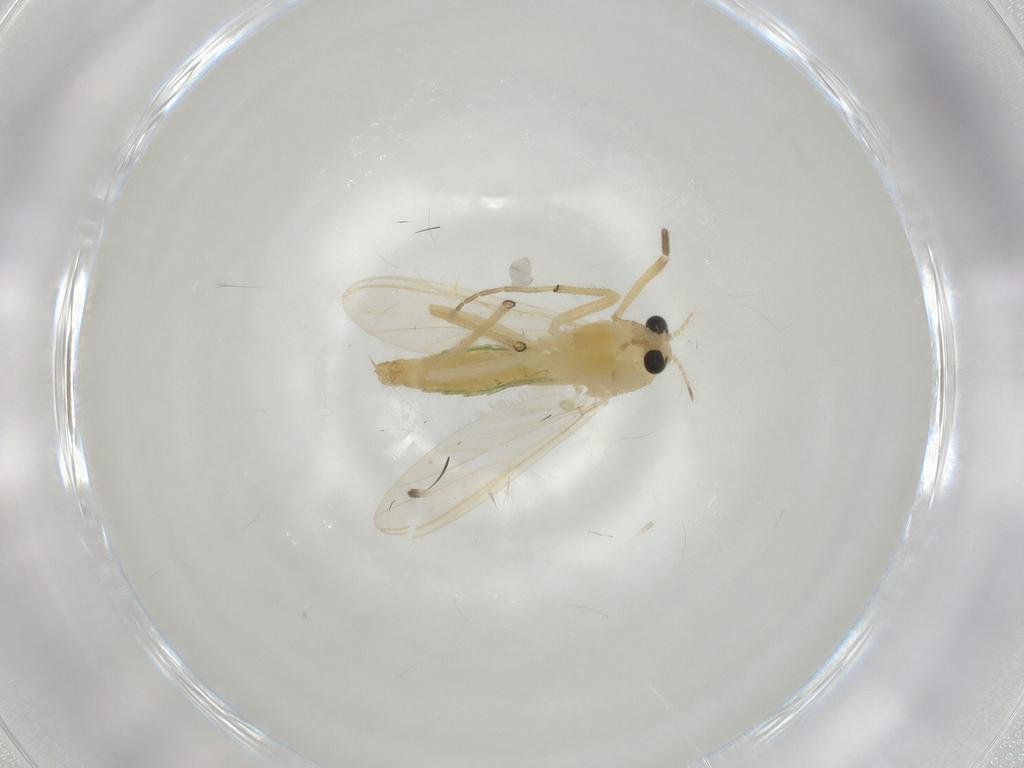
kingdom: Animalia
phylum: Arthropoda
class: Insecta
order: Diptera
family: Chironomidae
